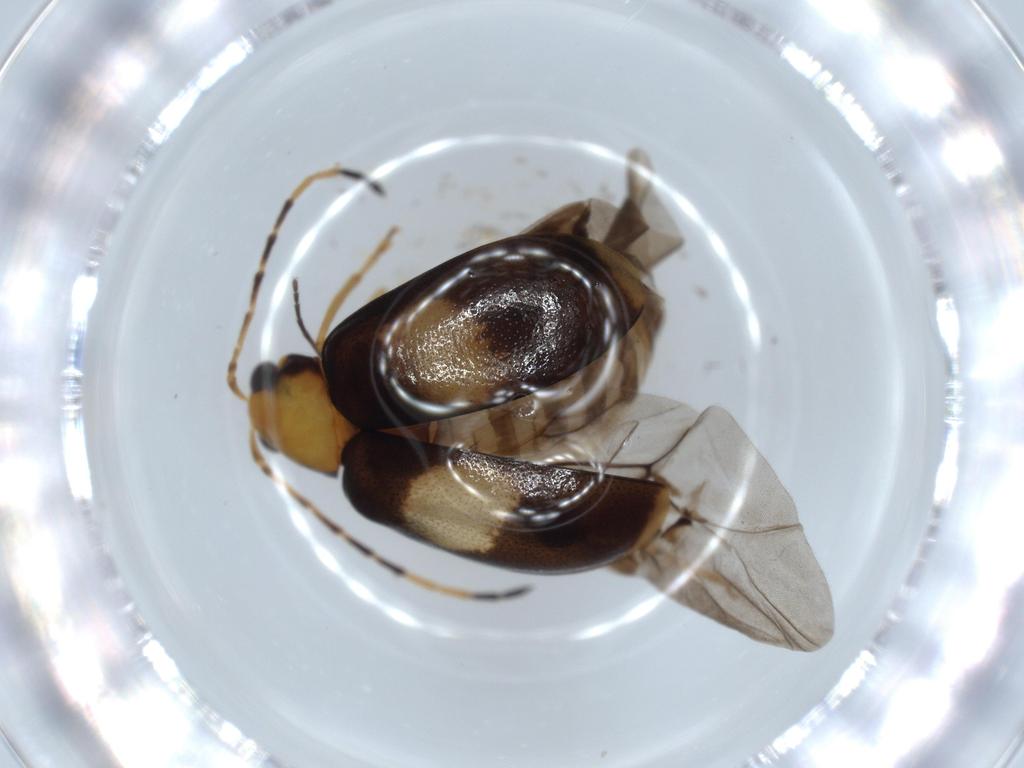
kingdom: Animalia
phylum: Arthropoda
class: Insecta
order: Coleoptera
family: Chrysomelidae
